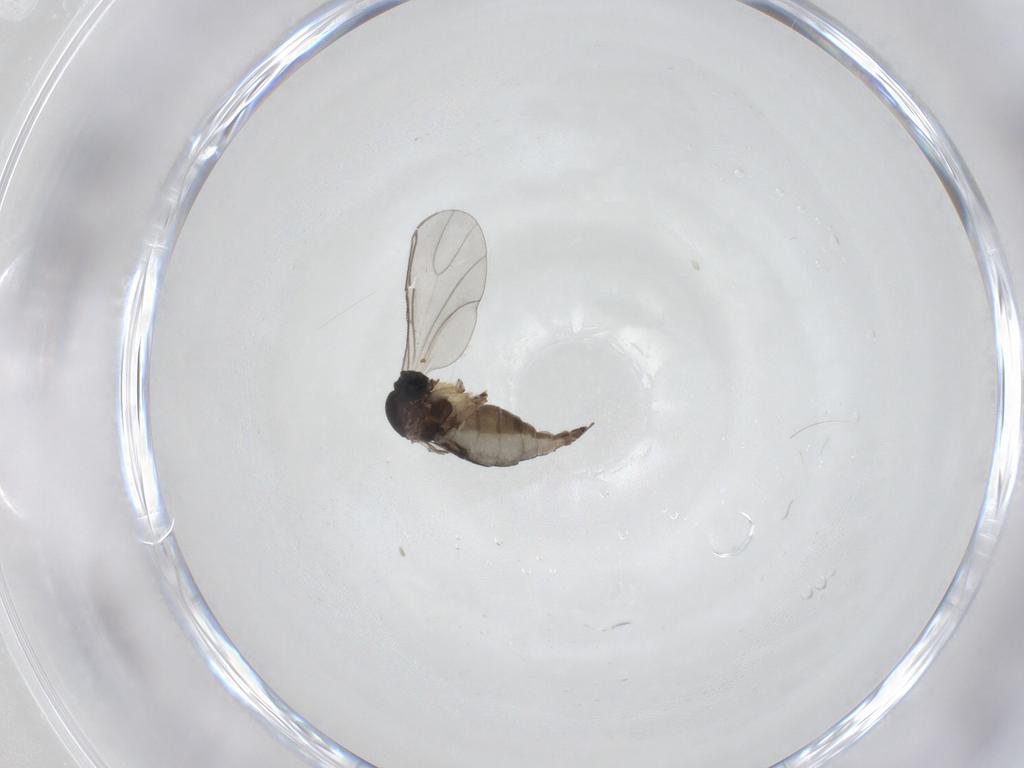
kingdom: Animalia
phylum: Arthropoda
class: Insecta
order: Diptera
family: Sciaridae
